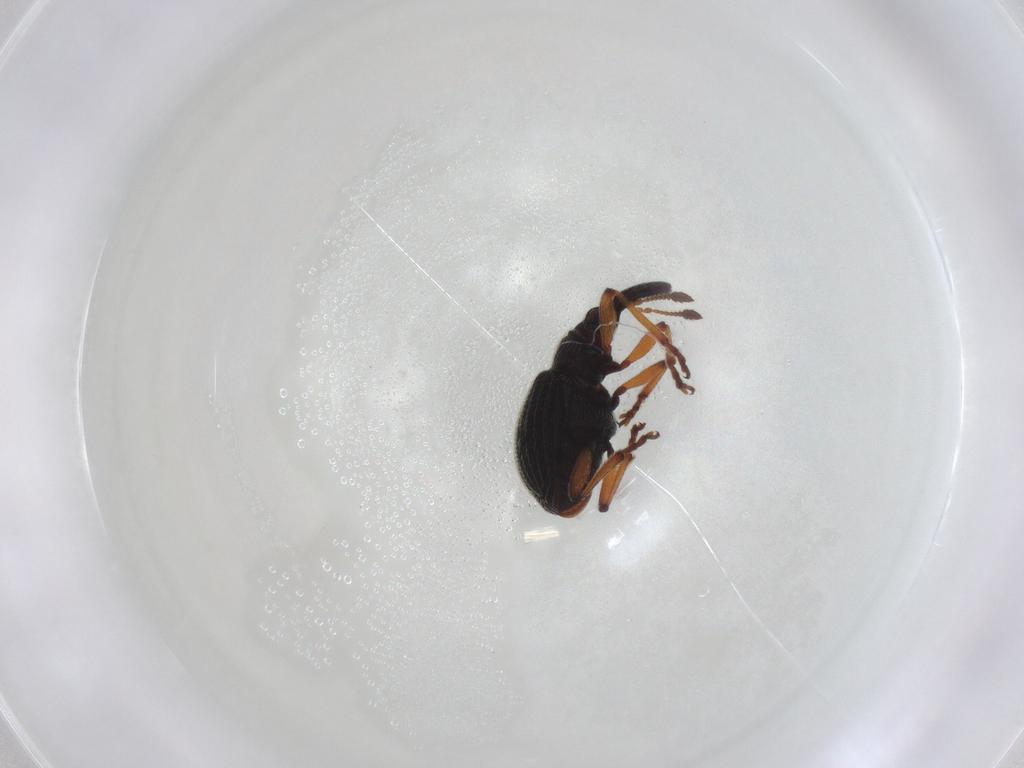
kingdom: Animalia
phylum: Arthropoda
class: Insecta
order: Coleoptera
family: Brentidae
